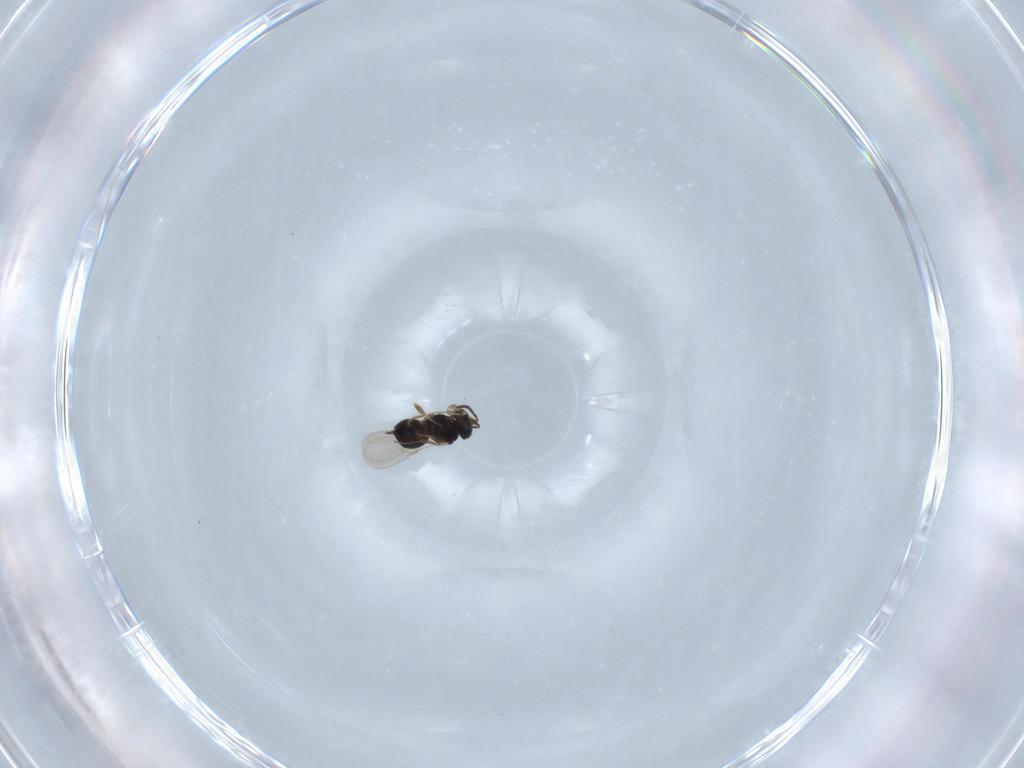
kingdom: Animalia
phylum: Arthropoda
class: Insecta
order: Hymenoptera
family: Scelionidae
